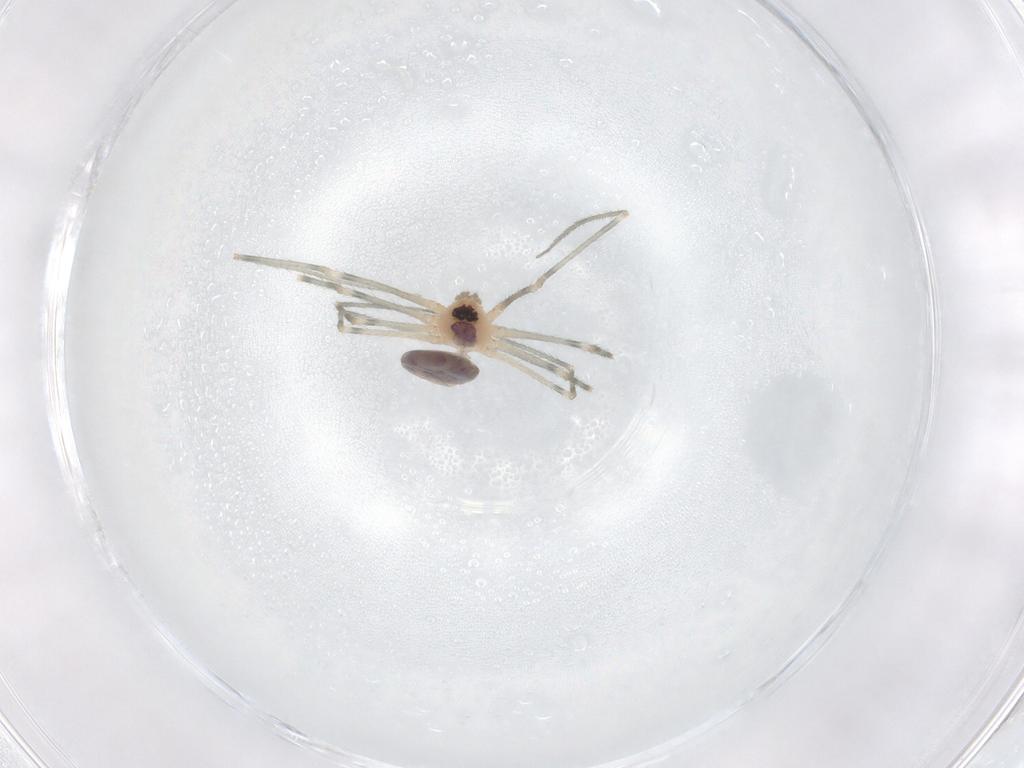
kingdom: Animalia
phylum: Arthropoda
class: Arachnida
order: Araneae
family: Pholcidae
